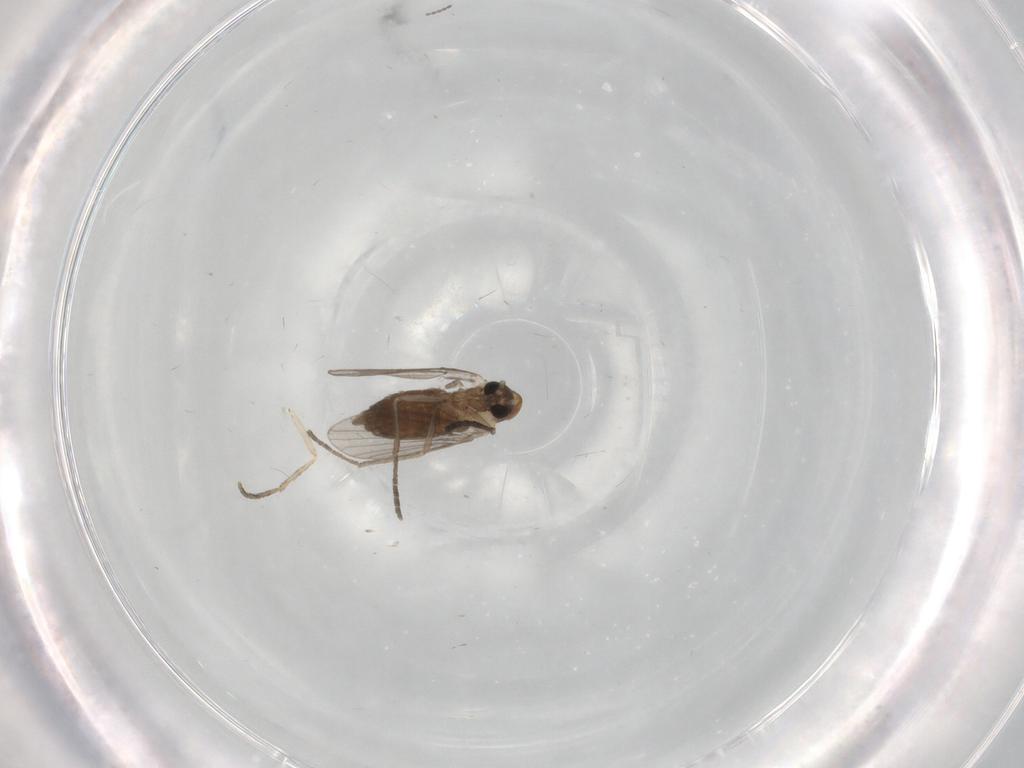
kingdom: Animalia
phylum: Arthropoda
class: Insecta
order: Diptera
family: Psychodidae
